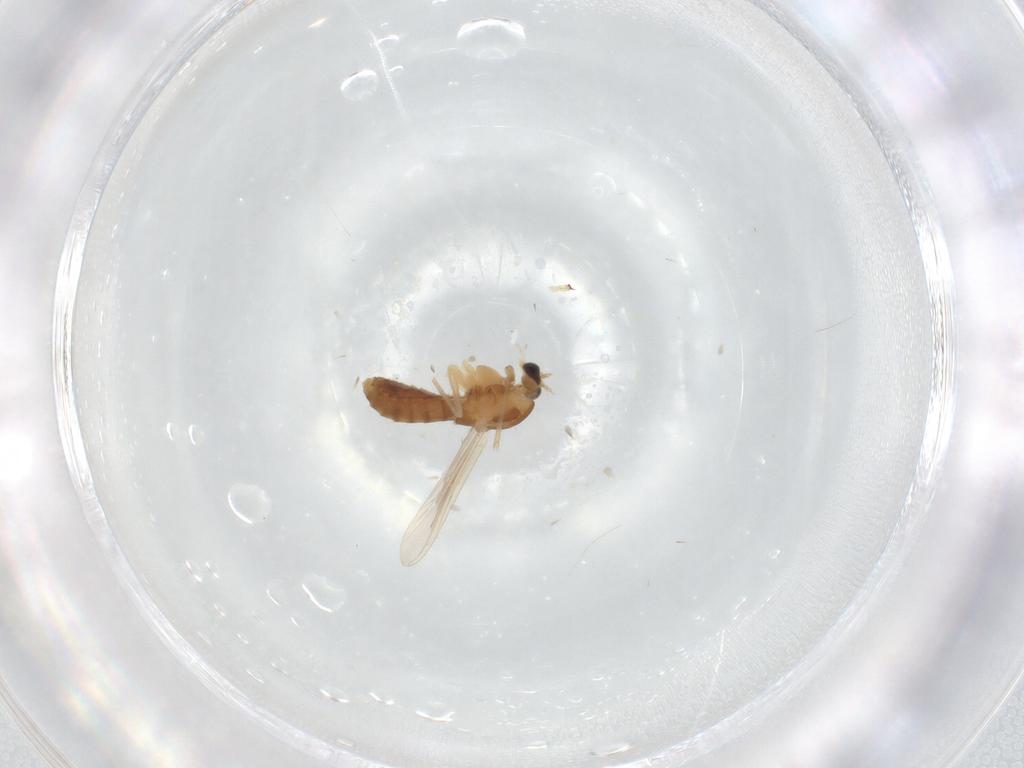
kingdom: Animalia
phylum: Arthropoda
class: Insecta
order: Diptera
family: Chironomidae
